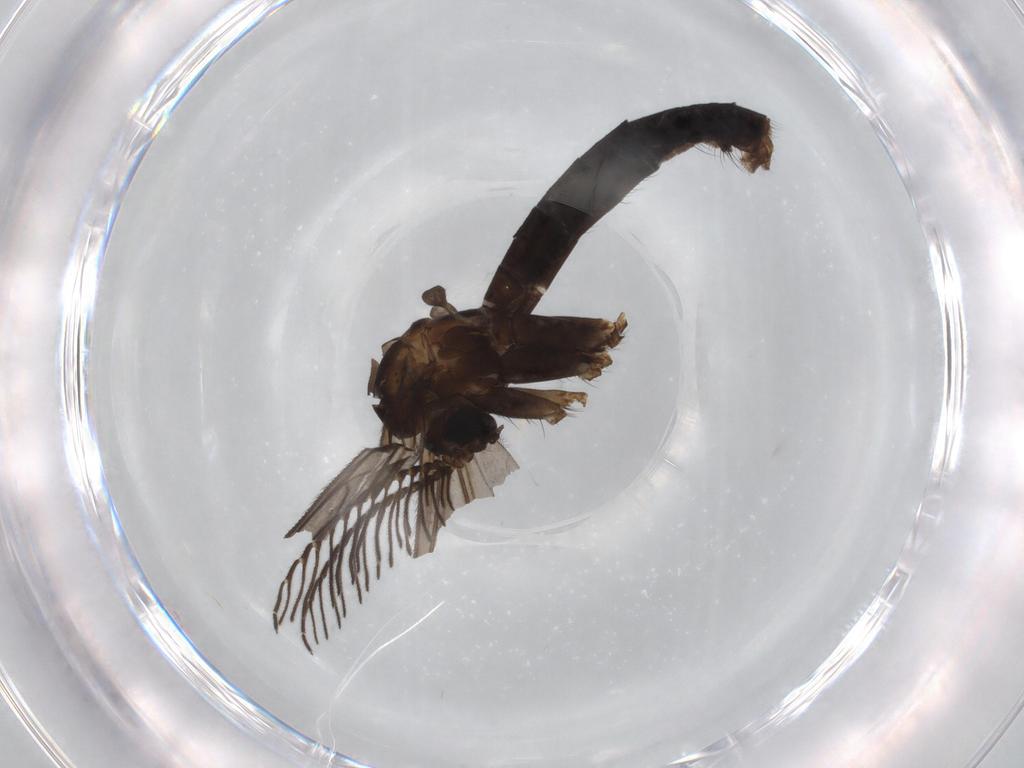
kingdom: Animalia
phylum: Arthropoda
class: Insecta
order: Diptera
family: Ditomyiidae
